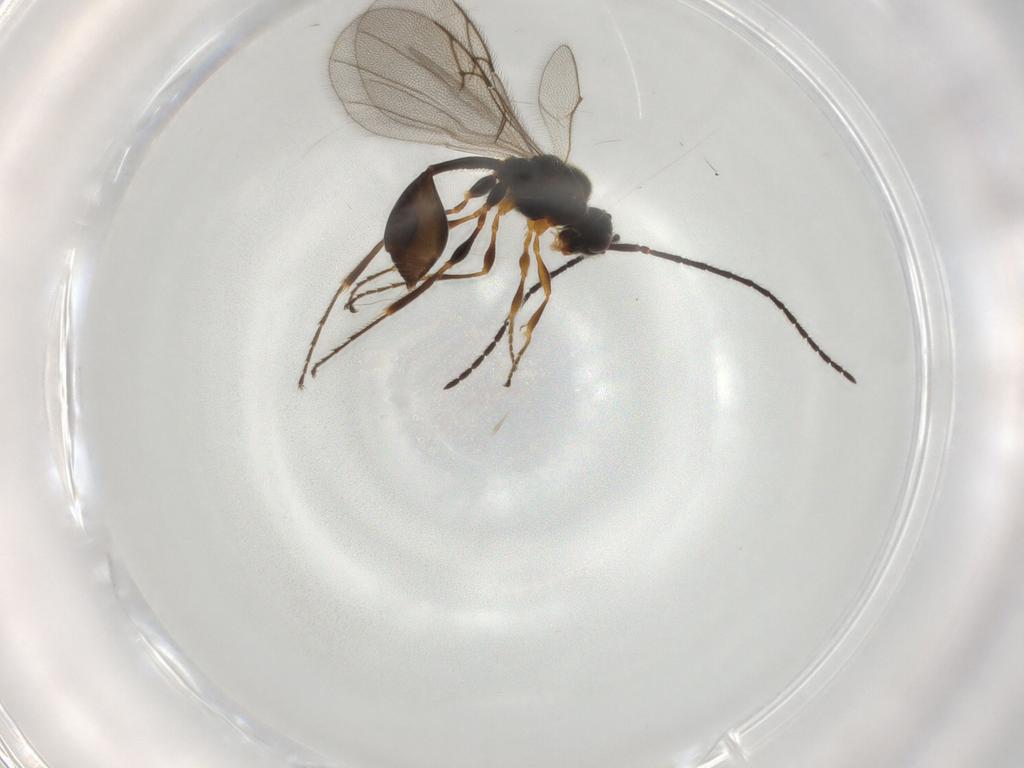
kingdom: Animalia
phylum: Arthropoda
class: Insecta
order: Hymenoptera
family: Diapriidae
